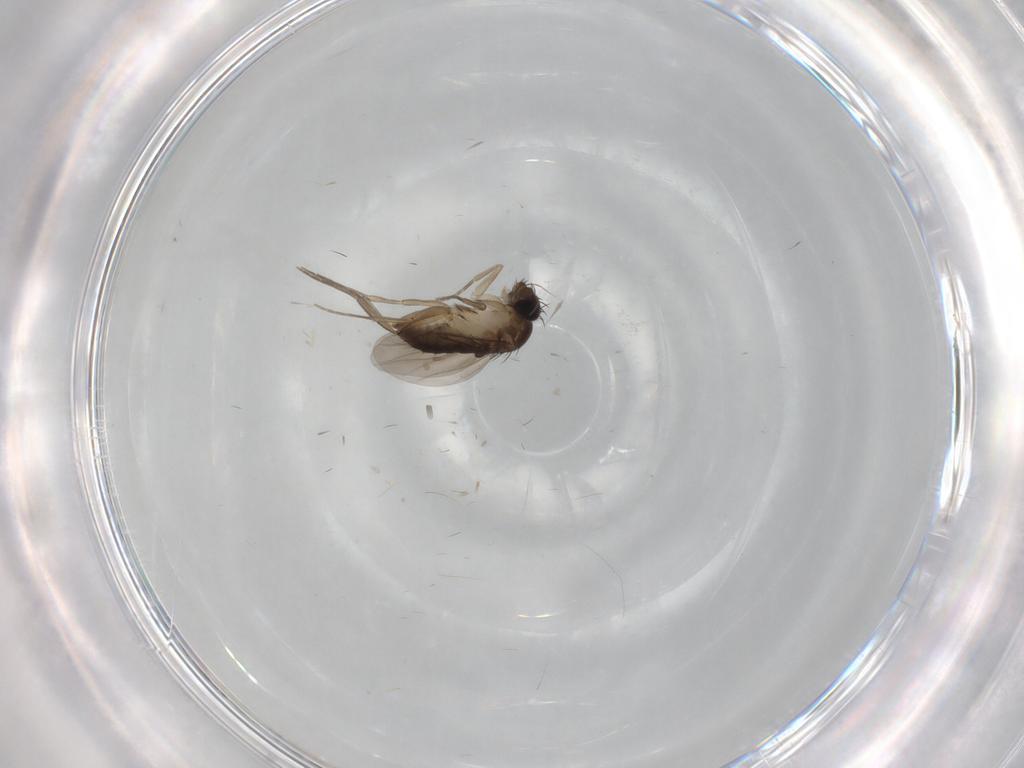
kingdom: Animalia
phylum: Arthropoda
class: Insecta
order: Diptera
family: Phoridae
